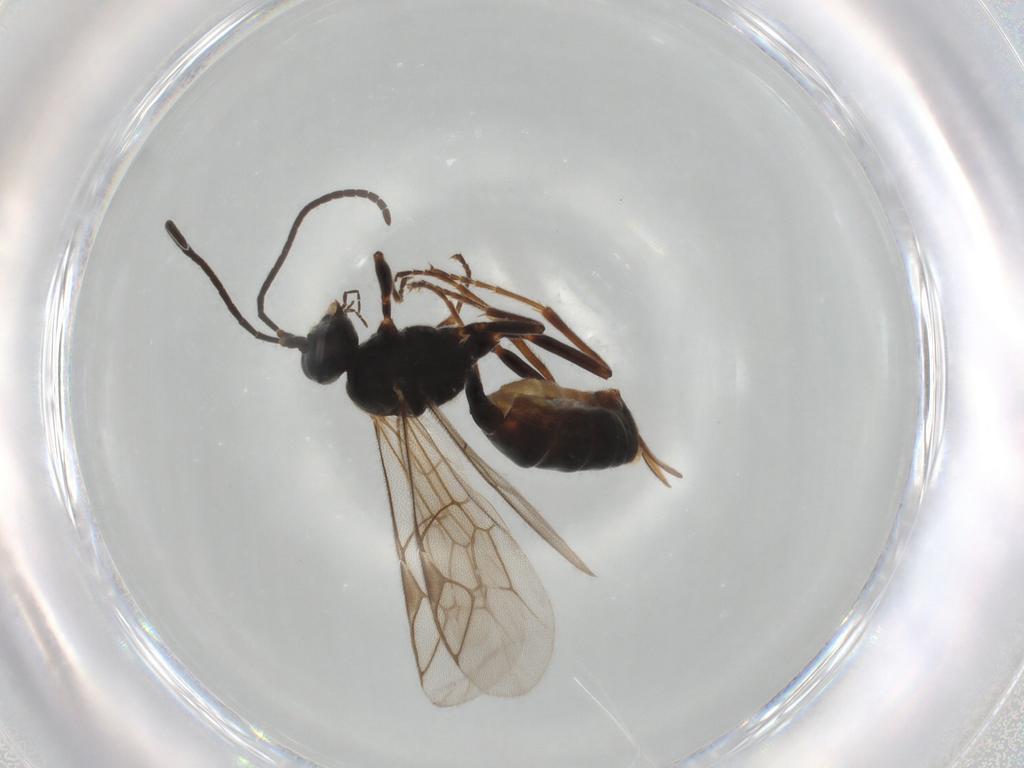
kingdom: Animalia
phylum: Arthropoda
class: Insecta
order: Hymenoptera
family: Ichneumonidae
